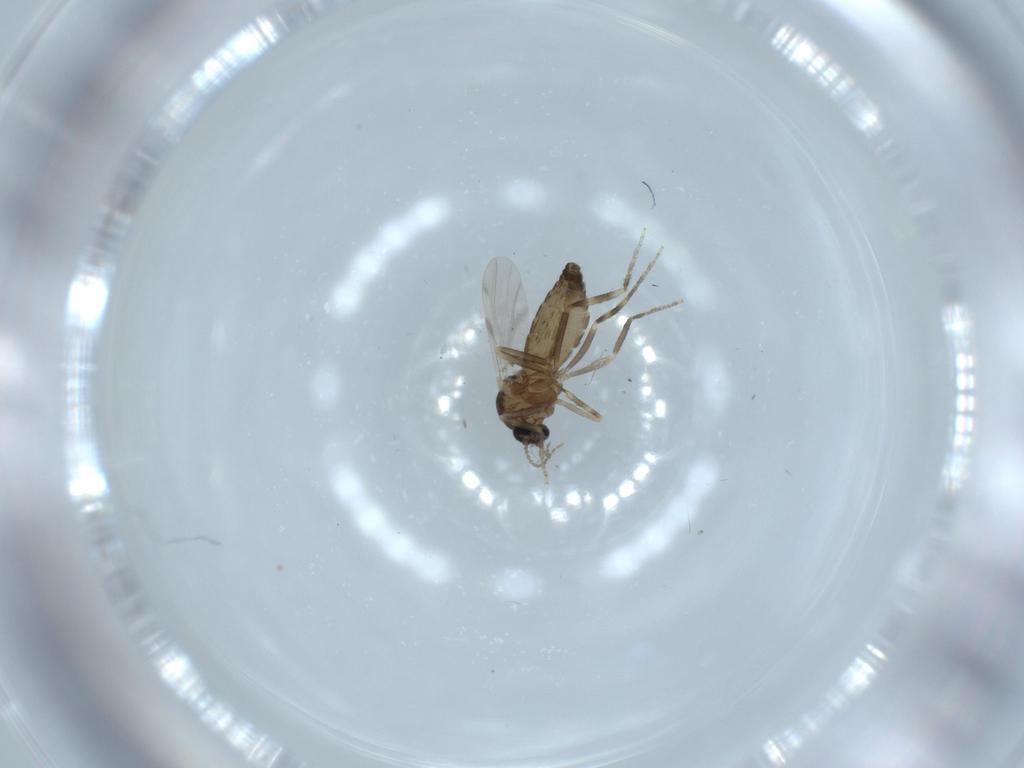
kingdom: Animalia
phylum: Arthropoda
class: Insecta
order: Diptera
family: Ceratopogonidae
